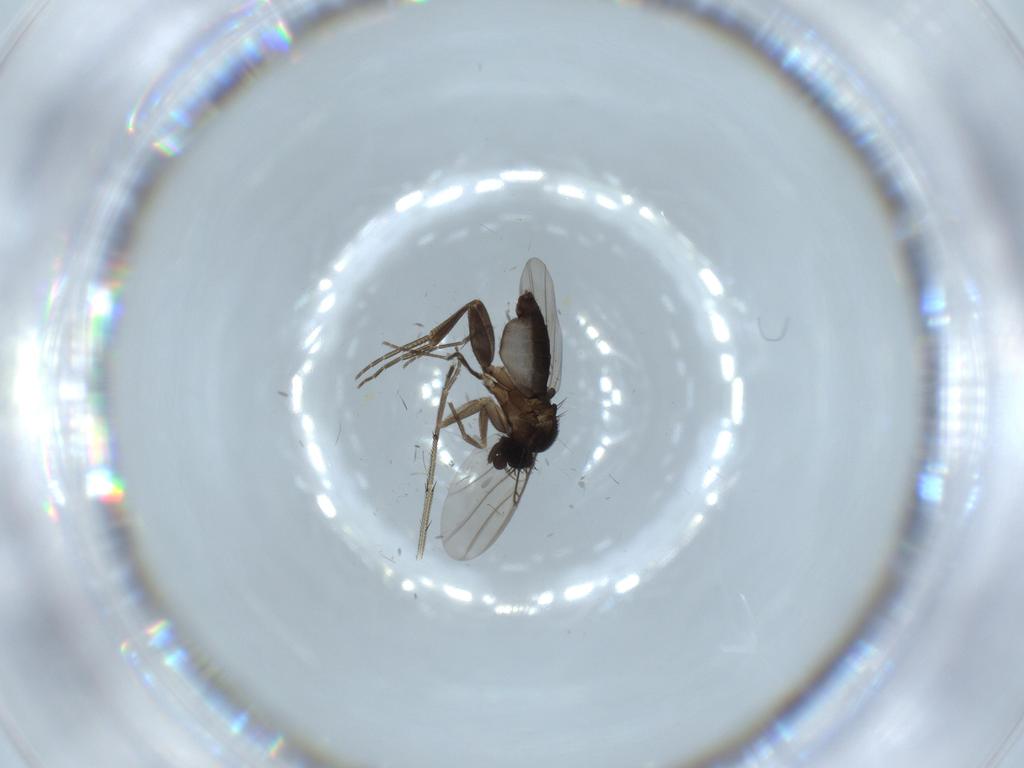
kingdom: Animalia
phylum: Arthropoda
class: Insecta
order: Diptera
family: Phoridae
